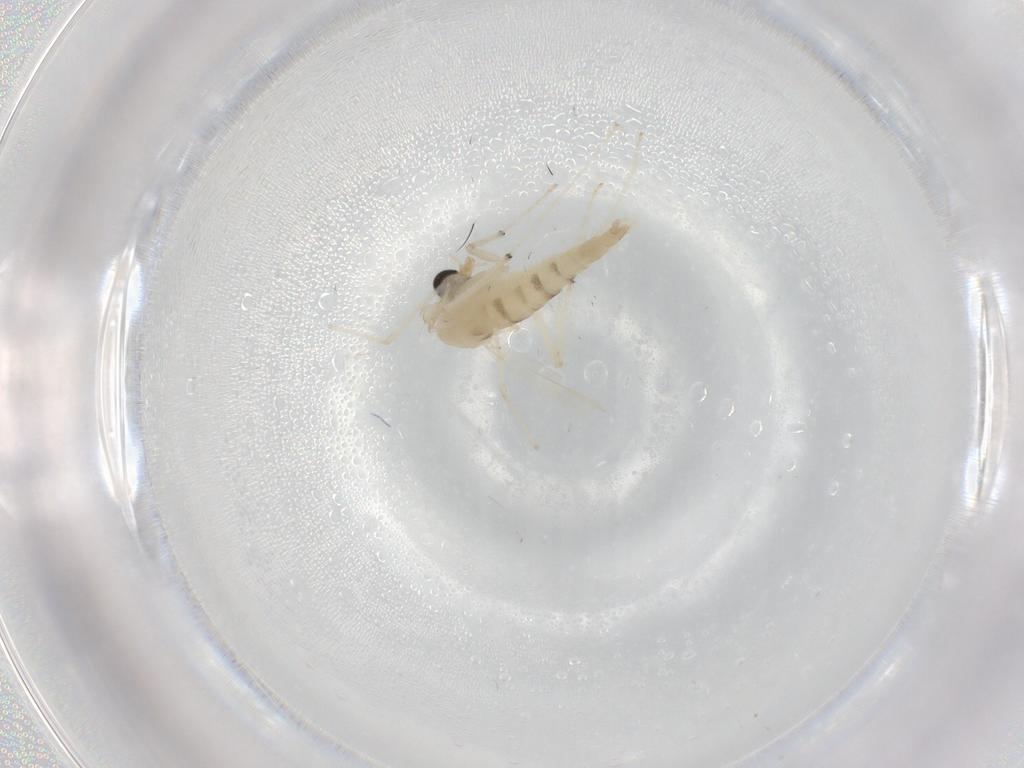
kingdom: Animalia
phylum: Arthropoda
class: Insecta
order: Diptera
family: Chironomidae
